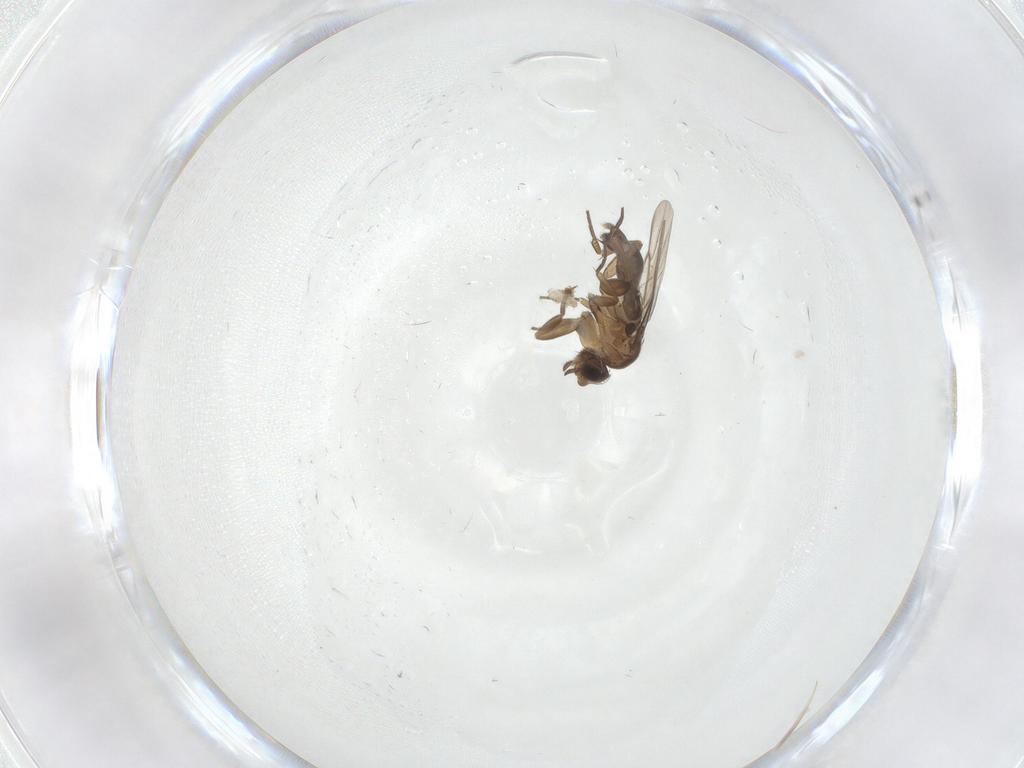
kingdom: Animalia
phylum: Arthropoda
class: Insecta
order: Diptera
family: Phoridae
